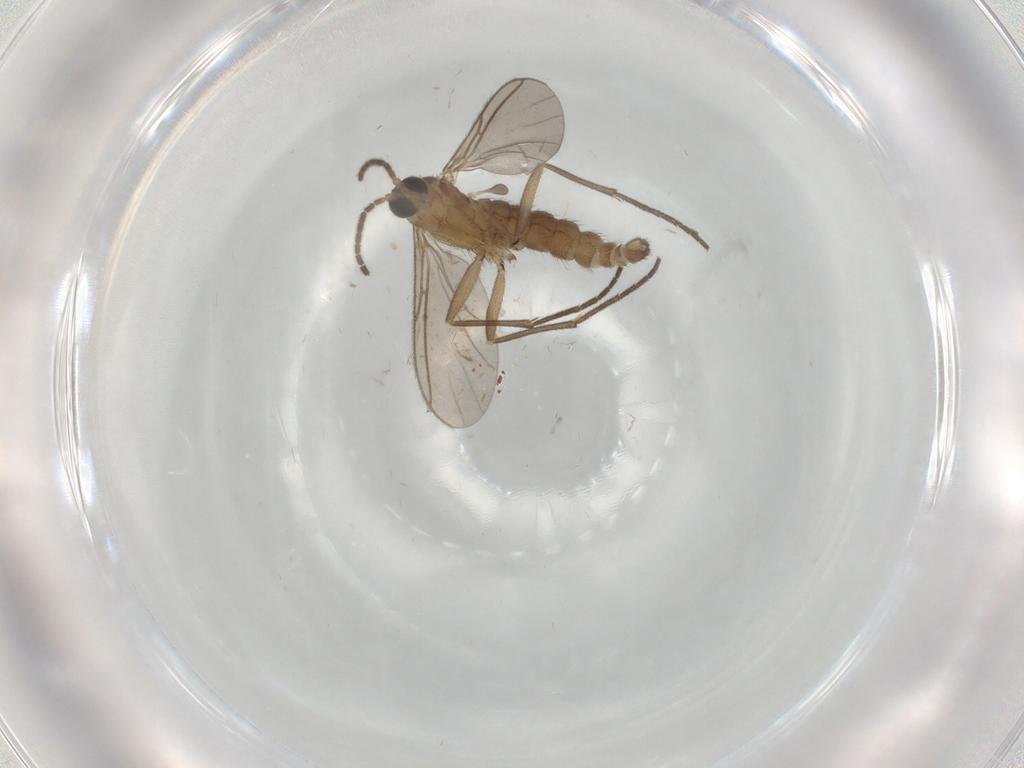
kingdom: Animalia
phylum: Arthropoda
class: Insecta
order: Diptera
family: Sciaridae
